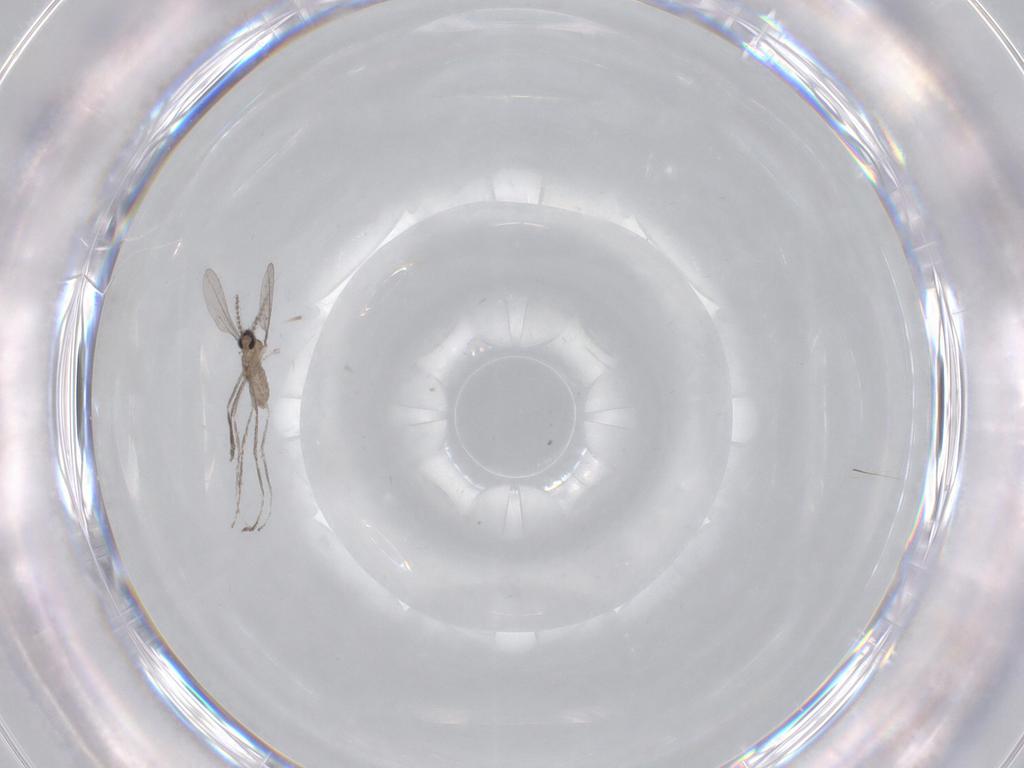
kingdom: Animalia
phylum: Arthropoda
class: Insecta
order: Diptera
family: Cecidomyiidae
